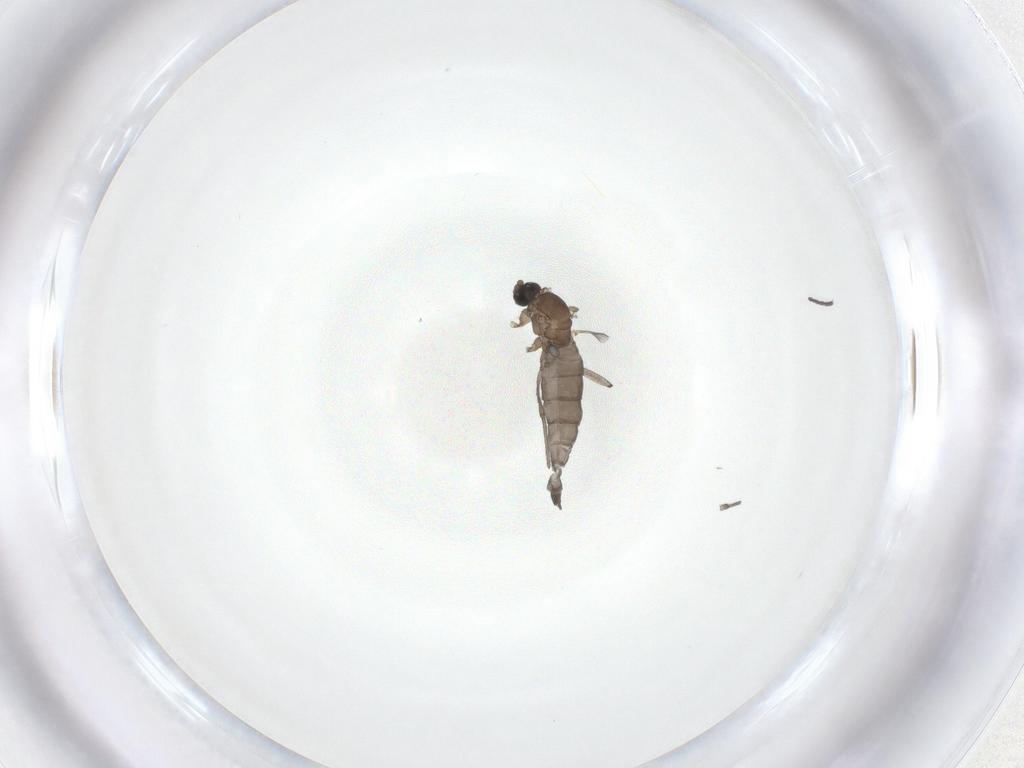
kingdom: Animalia
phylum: Arthropoda
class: Insecta
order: Diptera
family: Sciaridae
